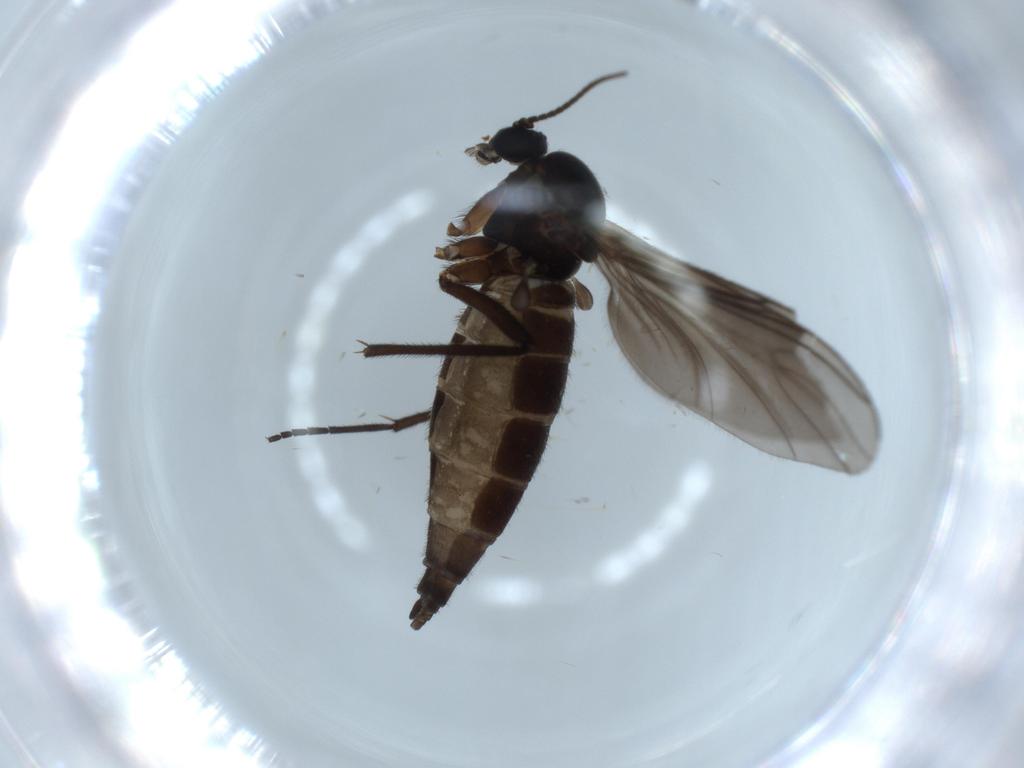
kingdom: Animalia
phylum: Arthropoda
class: Insecta
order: Diptera
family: Sciaridae
